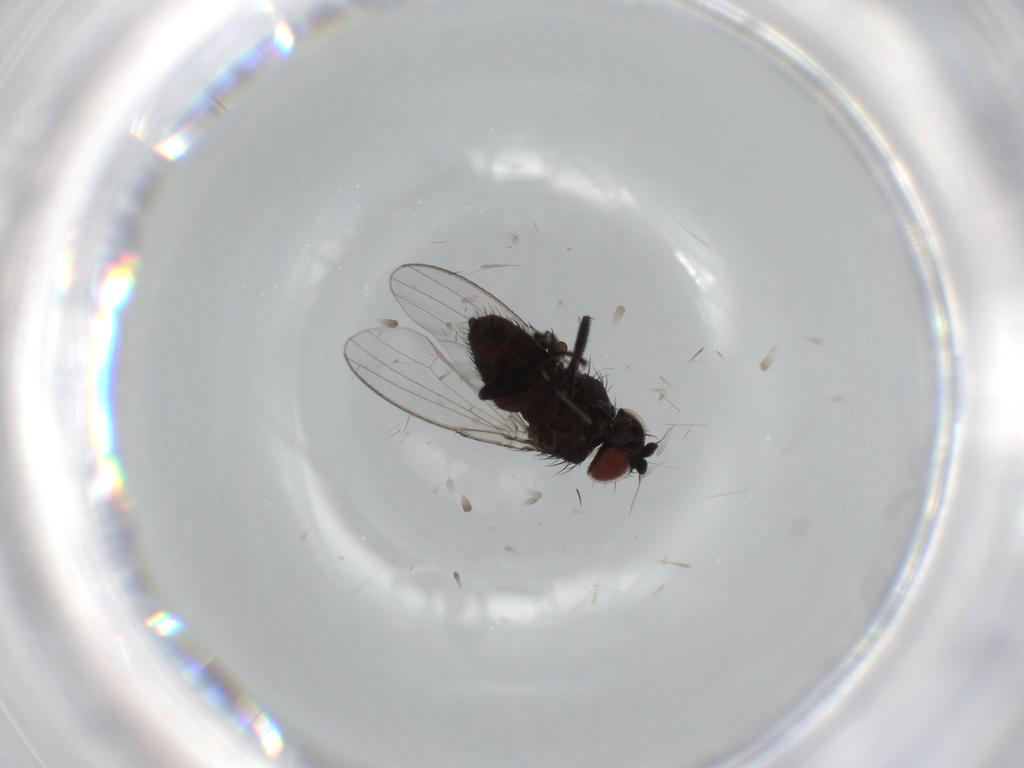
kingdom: Animalia
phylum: Arthropoda
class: Insecta
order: Diptera
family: Milichiidae
